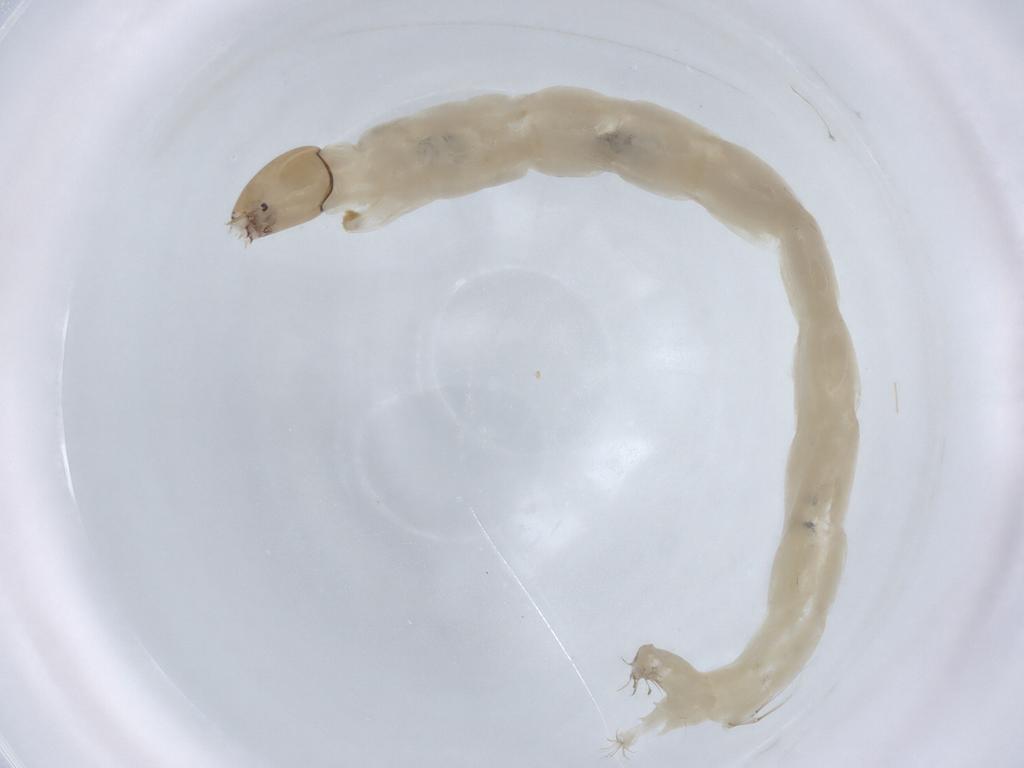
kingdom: Animalia
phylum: Arthropoda
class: Insecta
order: Diptera
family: Chironomidae
